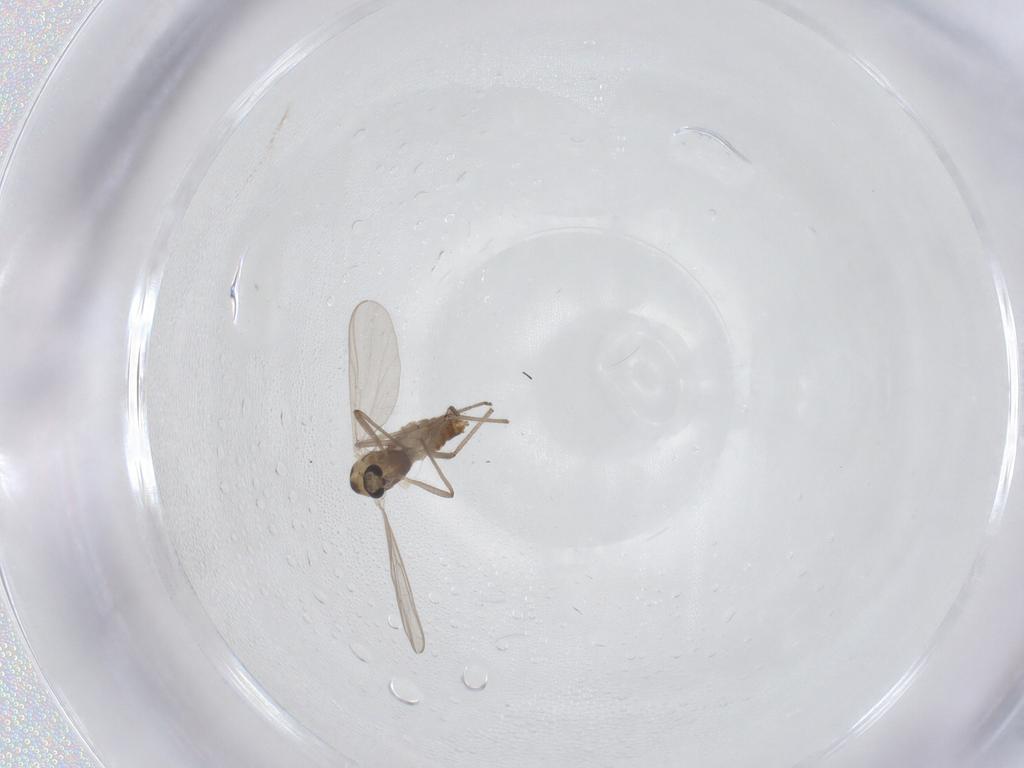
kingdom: Animalia
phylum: Arthropoda
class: Insecta
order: Diptera
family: Chironomidae
